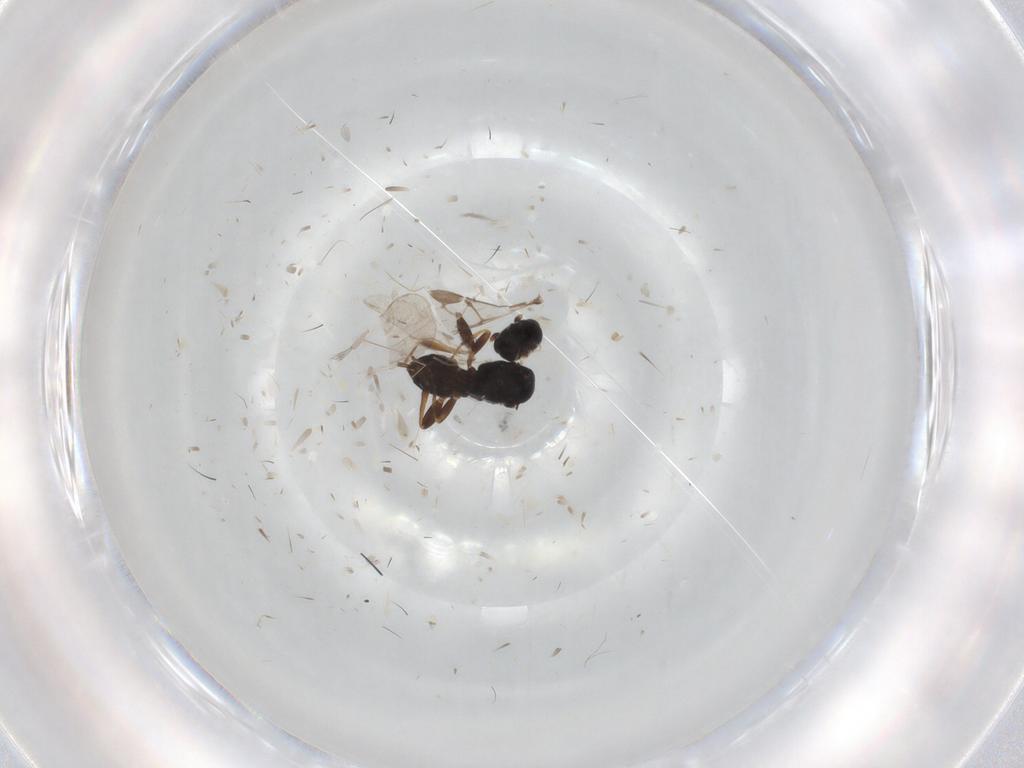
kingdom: Animalia
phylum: Arthropoda
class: Insecta
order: Hymenoptera
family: Braconidae
